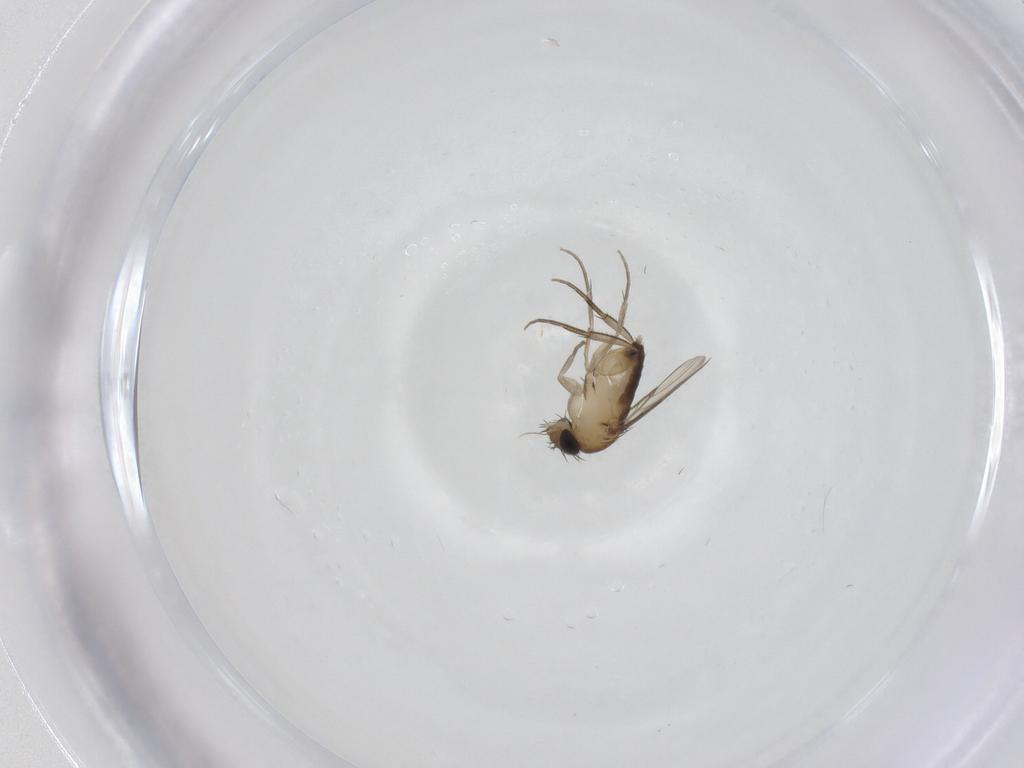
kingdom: Animalia
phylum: Arthropoda
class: Insecta
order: Diptera
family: Phoridae
